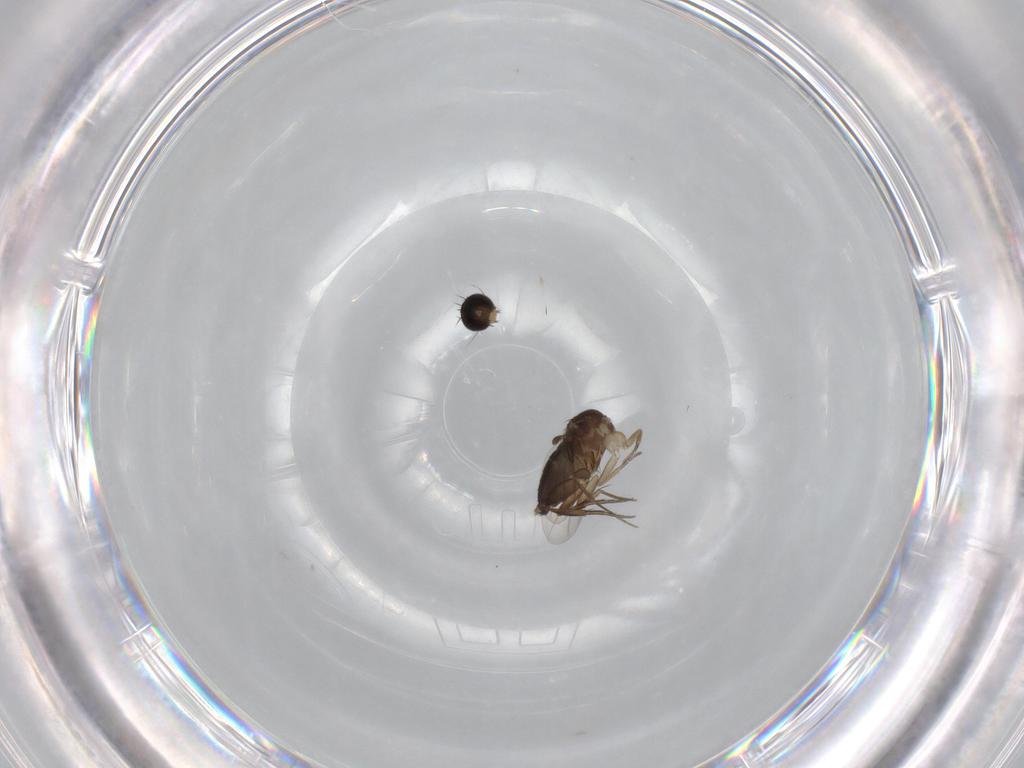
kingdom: Animalia
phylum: Arthropoda
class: Insecta
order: Diptera
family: Phoridae
